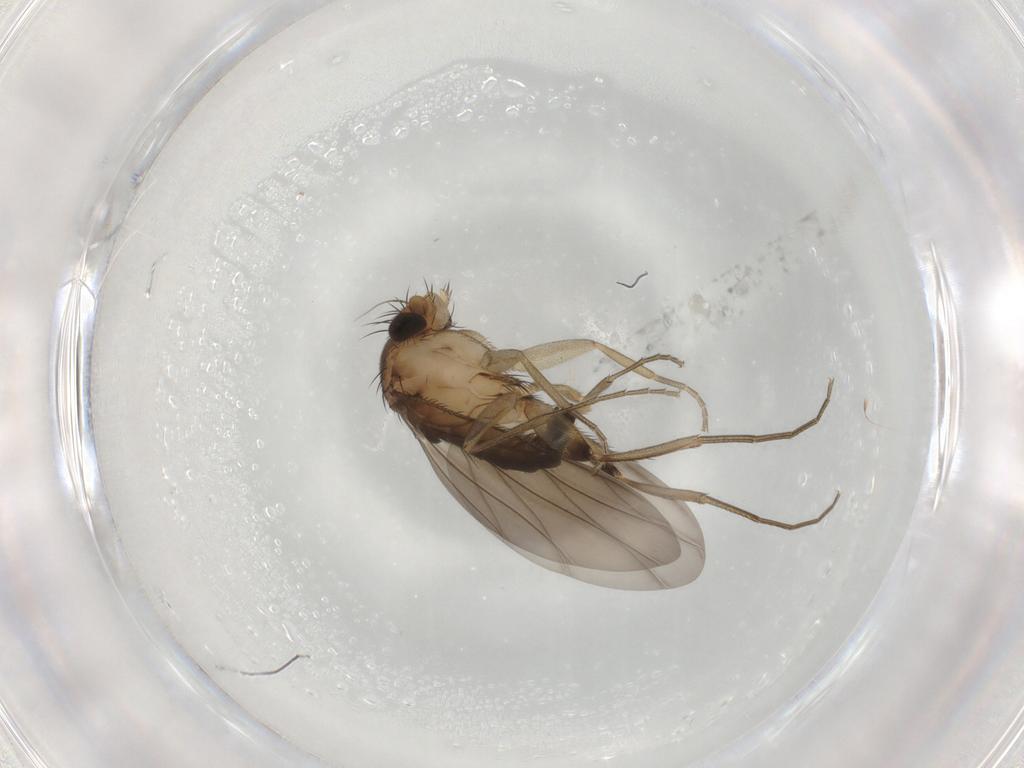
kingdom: Animalia
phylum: Arthropoda
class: Insecta
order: Diptera
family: Phoridae
